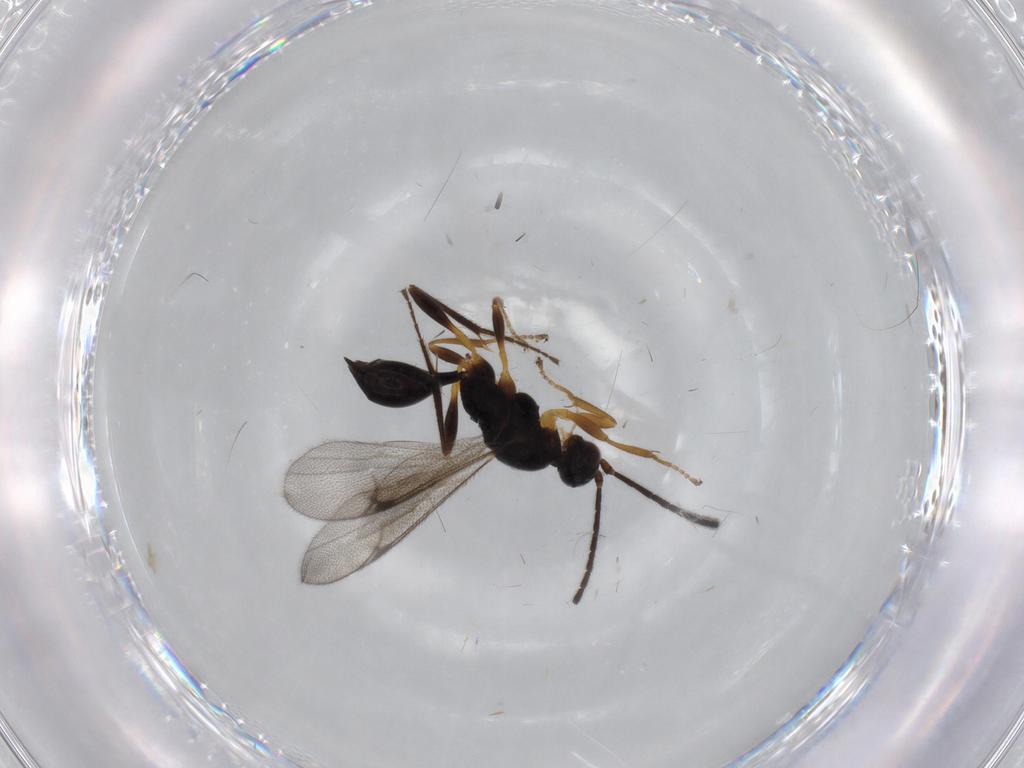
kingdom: Animalia
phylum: Arthropoda
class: Insecta
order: Hymenoptera
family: Proctotrupidae
